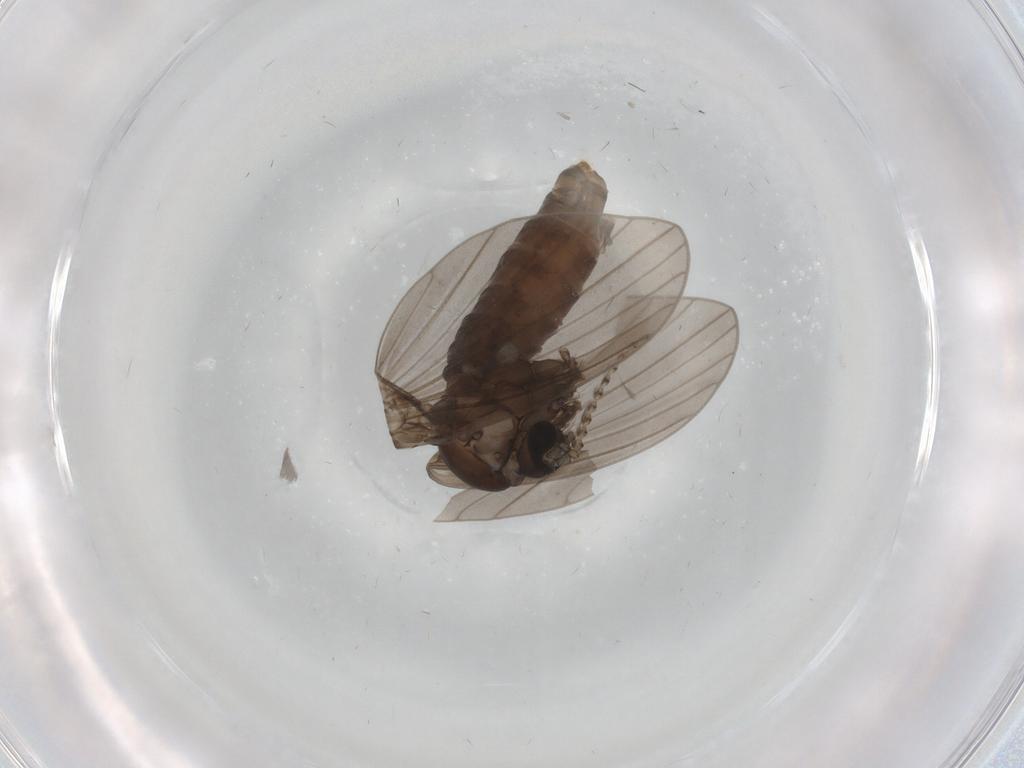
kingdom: Animalia
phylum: Arthropoda
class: Insecta
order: Diptera
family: Psychodidae
